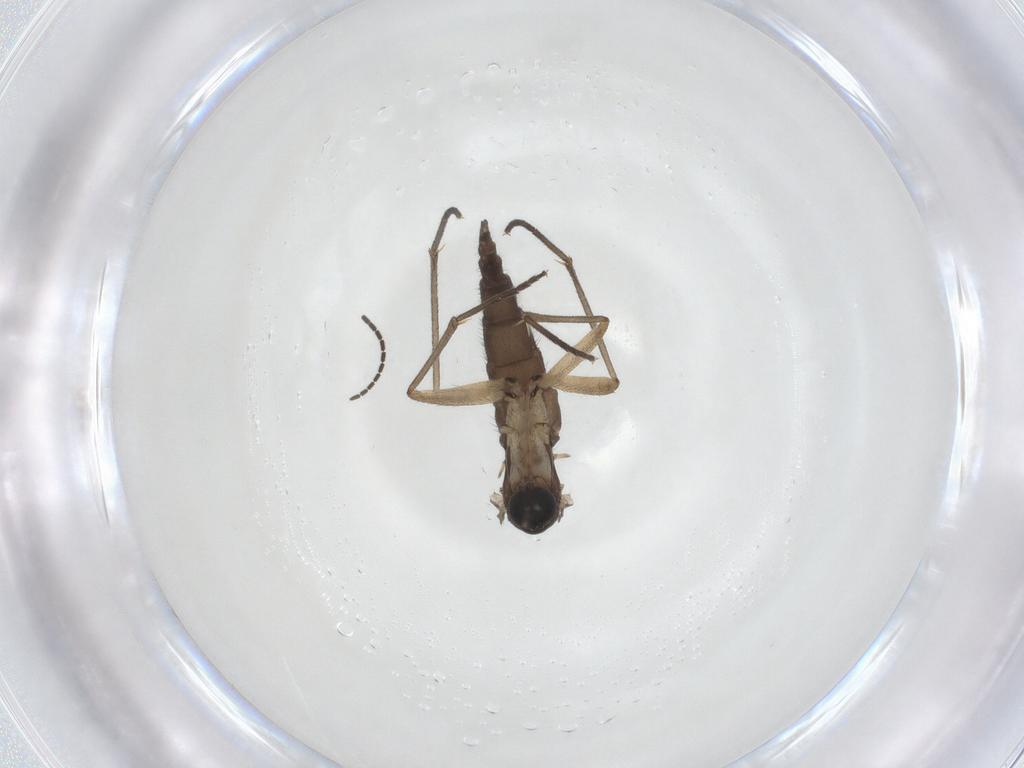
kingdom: Animalia
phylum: Arthropoda
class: Insecta
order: Diptera
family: Sciaridae
